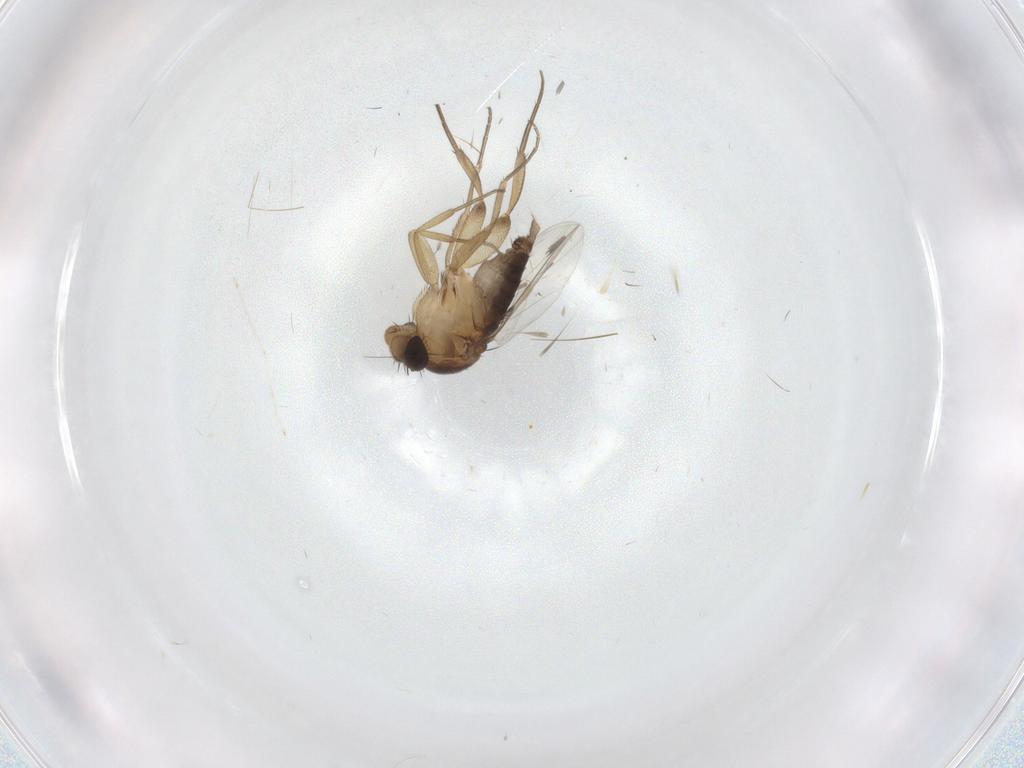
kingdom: Animalia
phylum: Arthropoda
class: Insecta
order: Diptera
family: Phoridae
